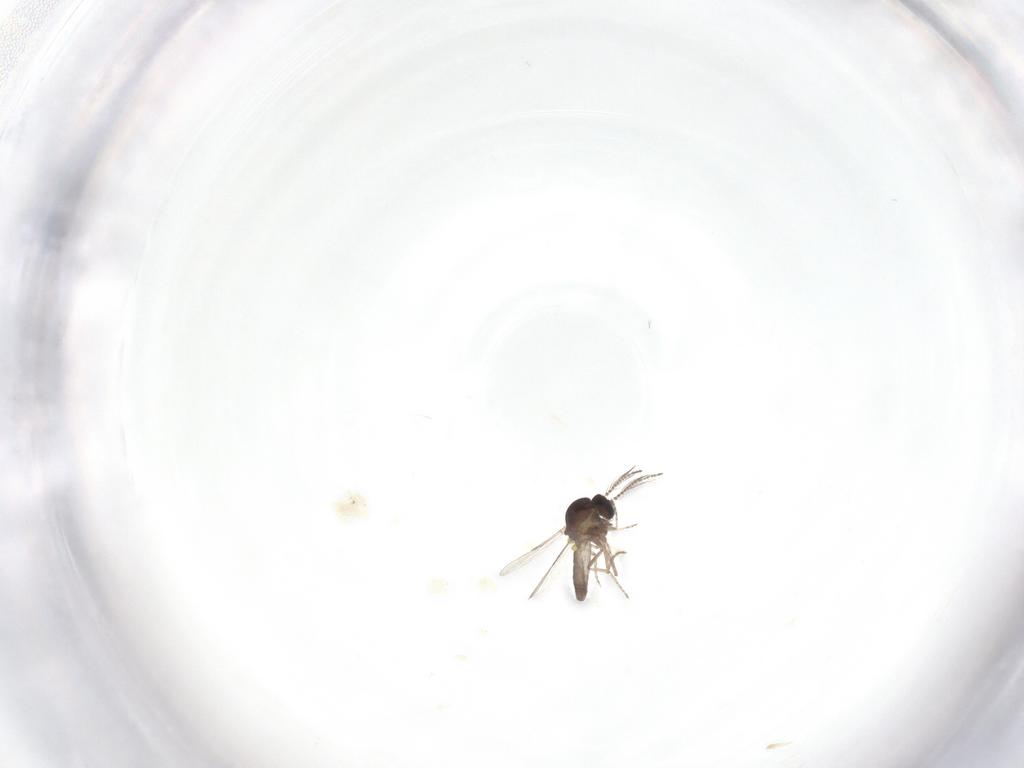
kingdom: Animalia
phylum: Arthropoda
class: Insecta
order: Diptera
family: Ceratopogonidae
